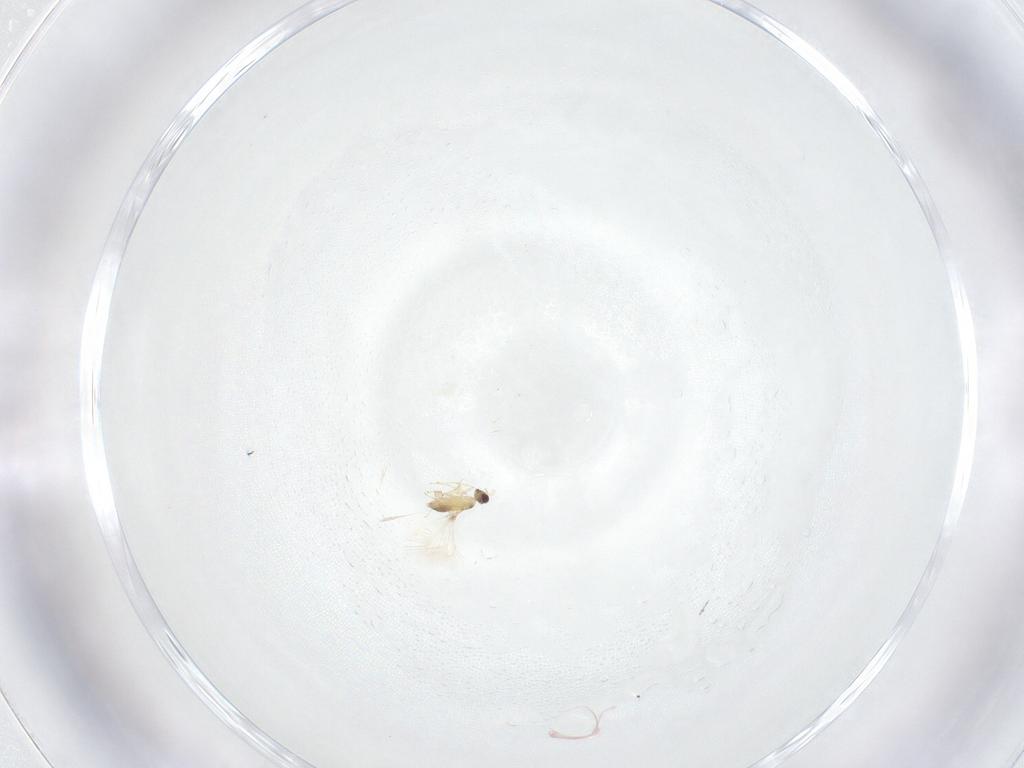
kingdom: Animalia
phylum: Arthropoda
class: Insecta
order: Hymenoptera
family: Mymaridae
